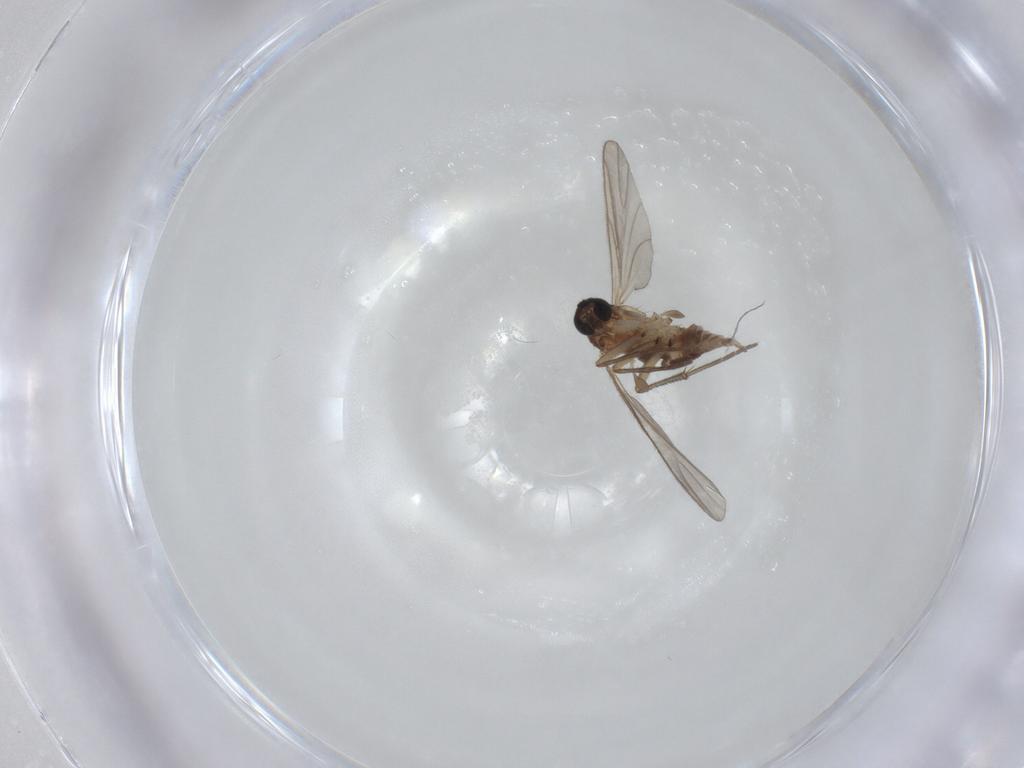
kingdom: Animalia
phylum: Arthropoda
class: Insecta
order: Diptera
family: Sciaridae
